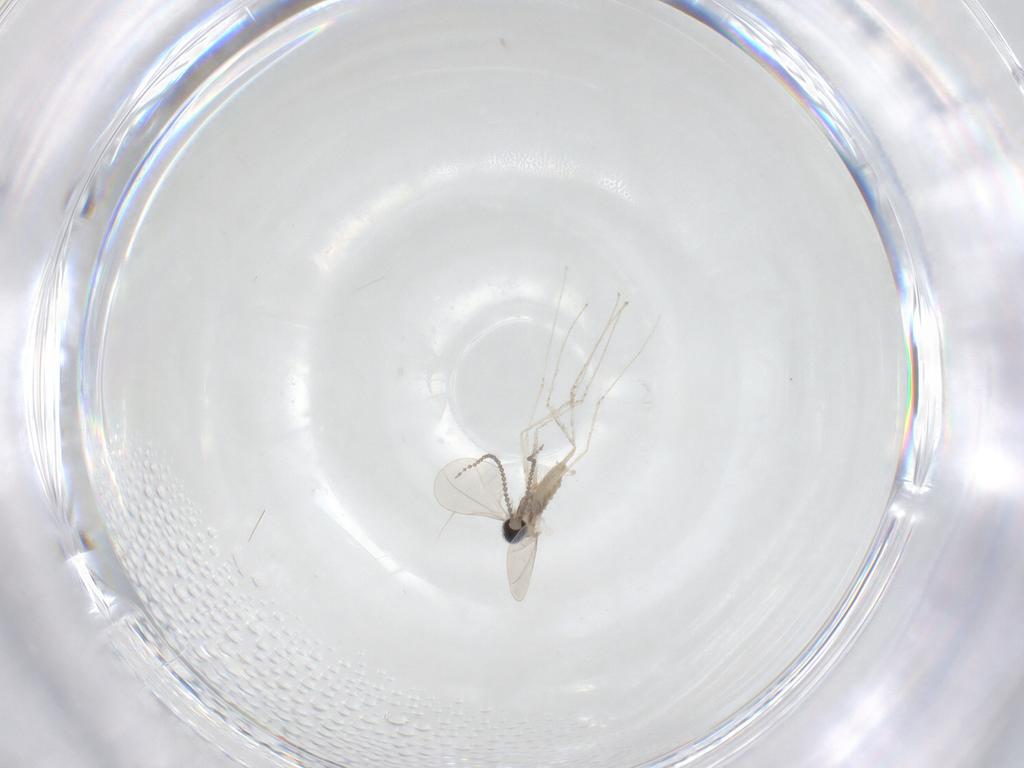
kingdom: Animalia
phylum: Arthropoda
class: Insecta
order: Diptera
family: Cecidomyiidae
